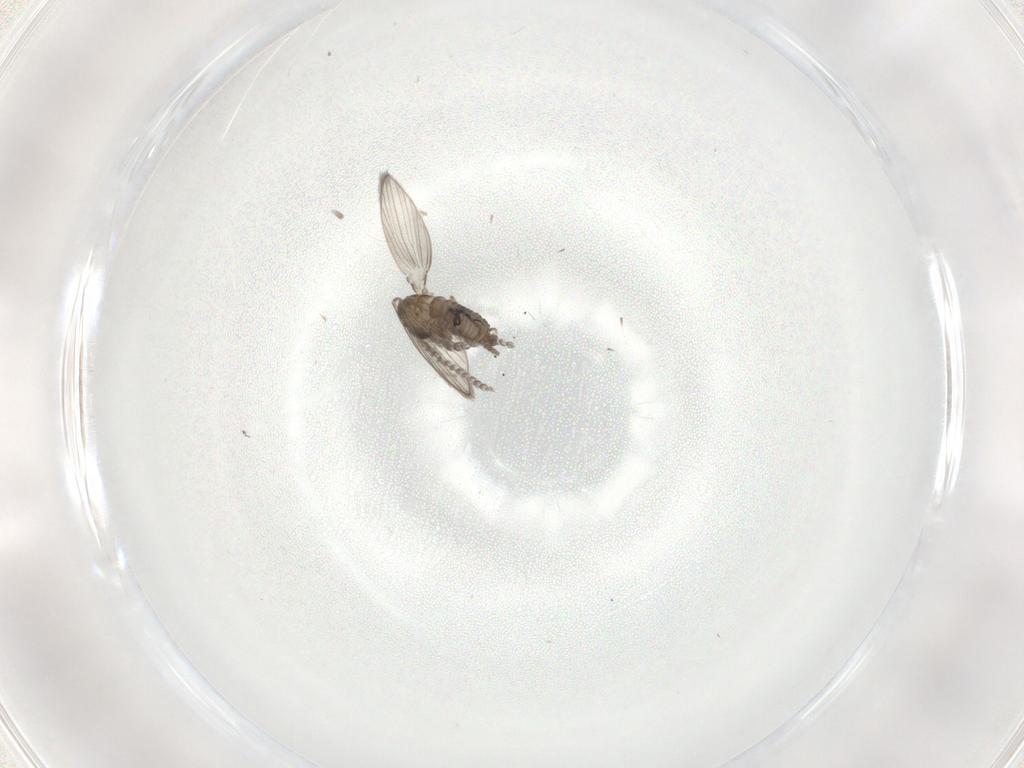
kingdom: Animalia
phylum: Arthropoda
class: Insecta
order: Diptera
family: Psychodidae
